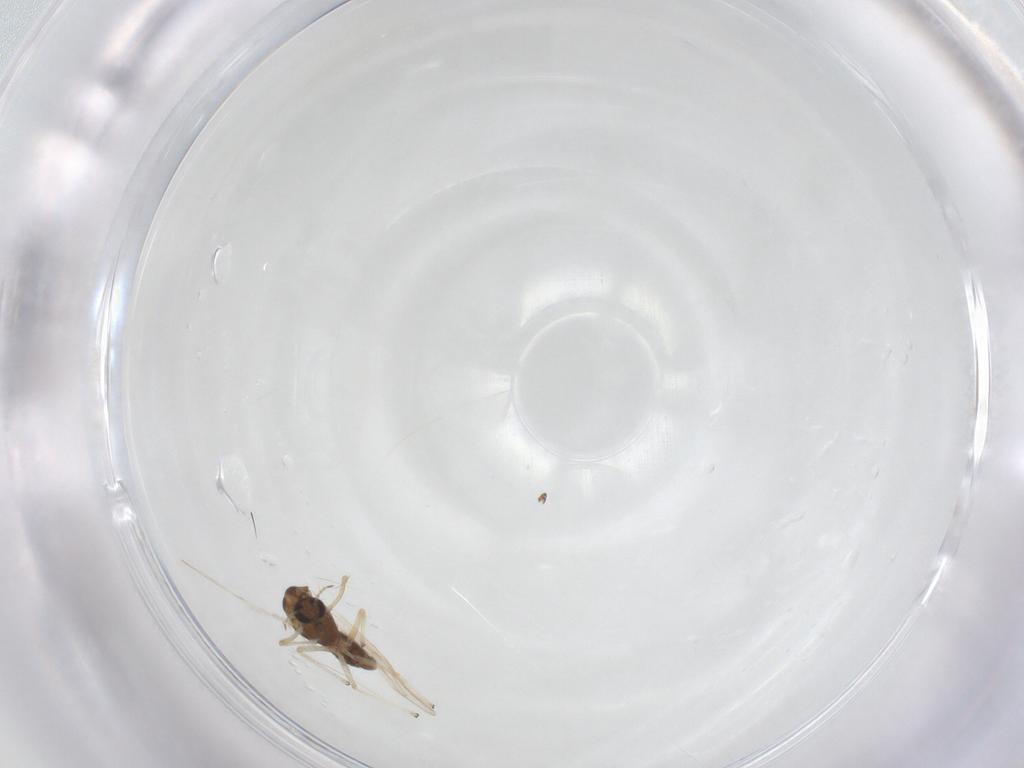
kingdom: Animalia
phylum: Arthropoda
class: Insecta
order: Diptera
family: Chironomidae
